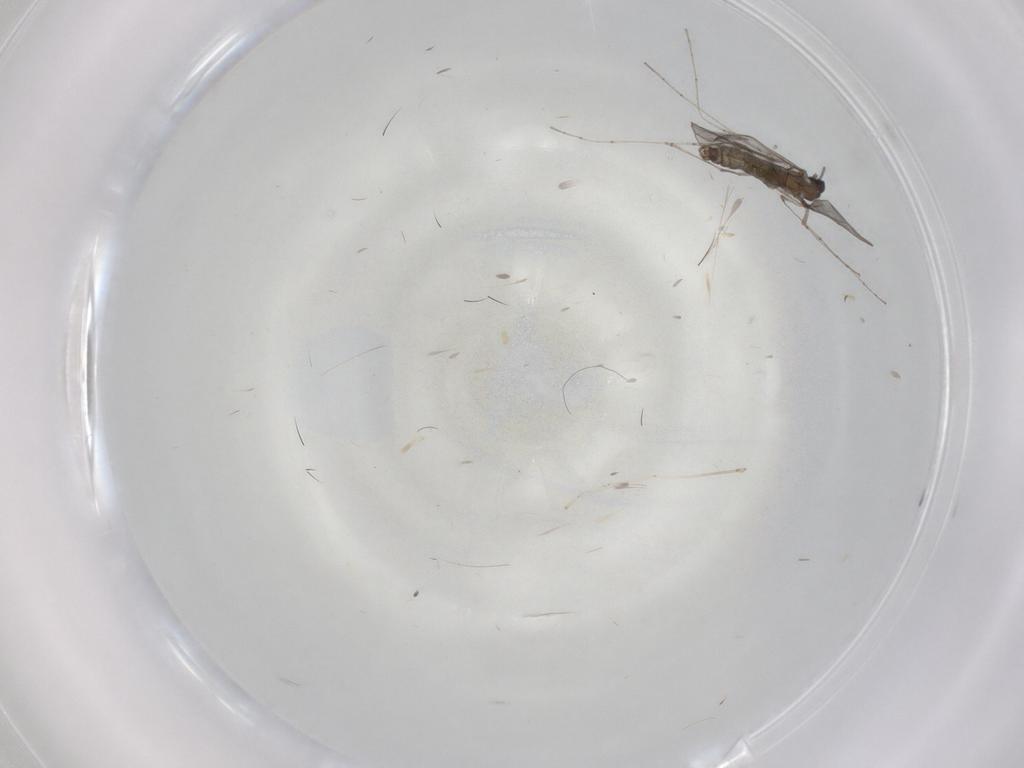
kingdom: Animalia
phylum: Arthropoda
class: Insecta
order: Diptera
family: Cecidomyiidae
